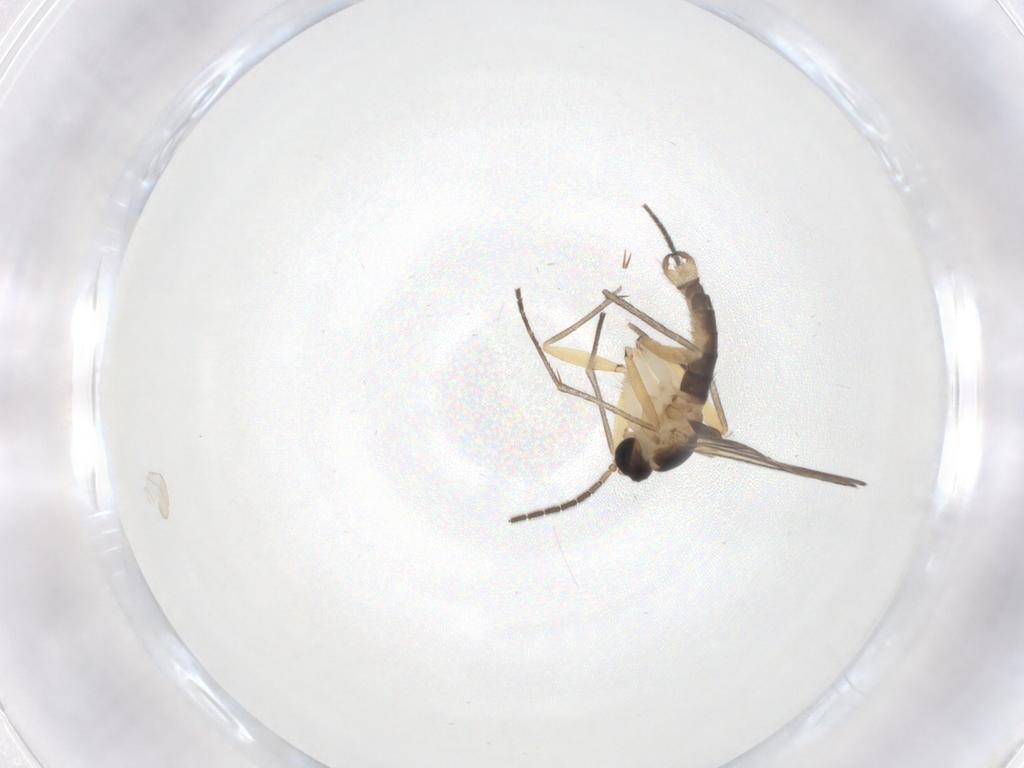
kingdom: Animalia
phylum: Arthropoda
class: Insecta
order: Diptera
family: Sciaridae
